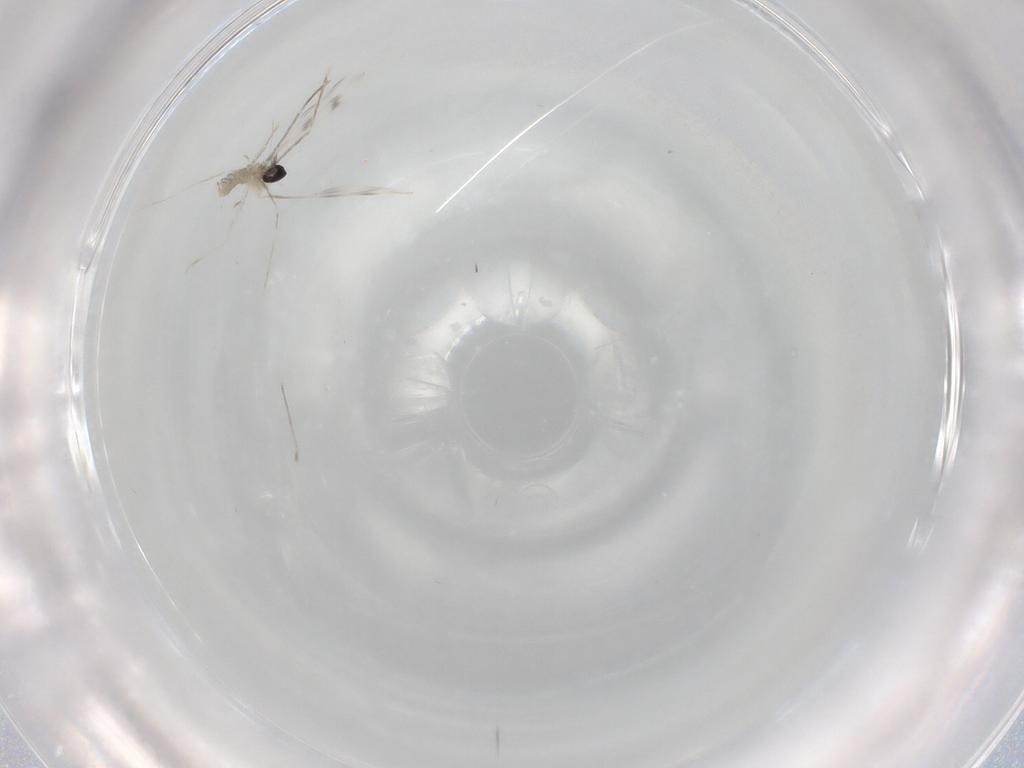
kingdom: Animalia
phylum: Arthropoda
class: Insecta
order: Diptera
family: Cecidomyiidae
